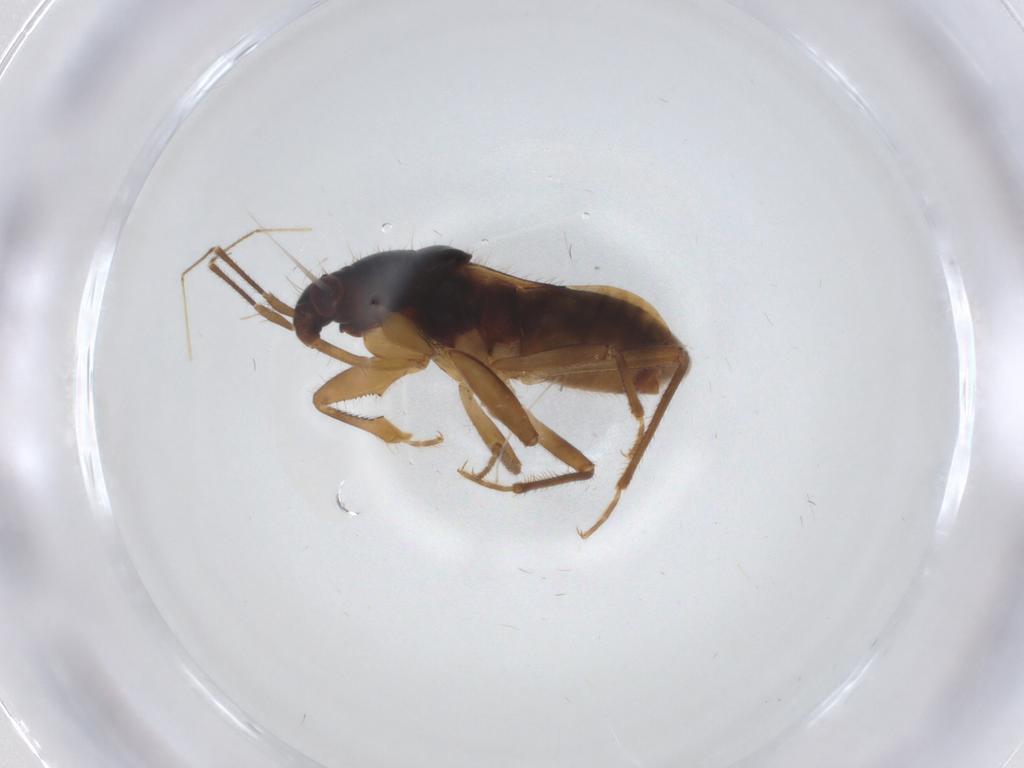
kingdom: Animalia
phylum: Arthropoda
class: Insecta
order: Hemiptera
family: Nabidae
